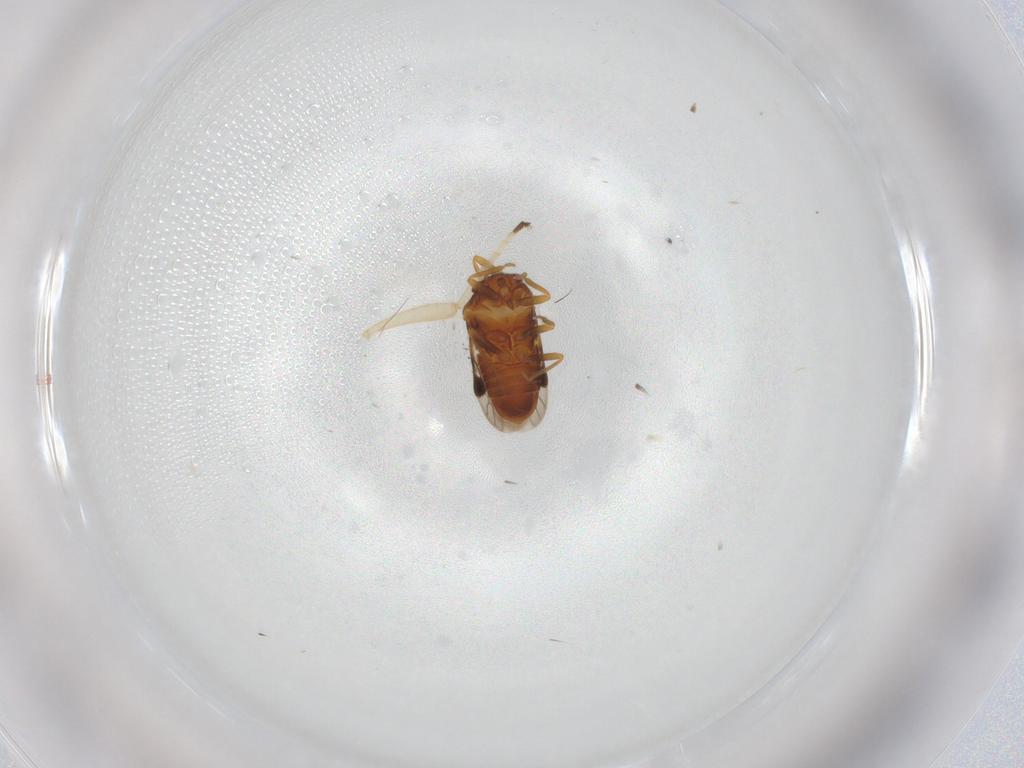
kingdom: Animalia
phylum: Arthropoda
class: Insecta
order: Hemiptera
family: Schizopteridae
